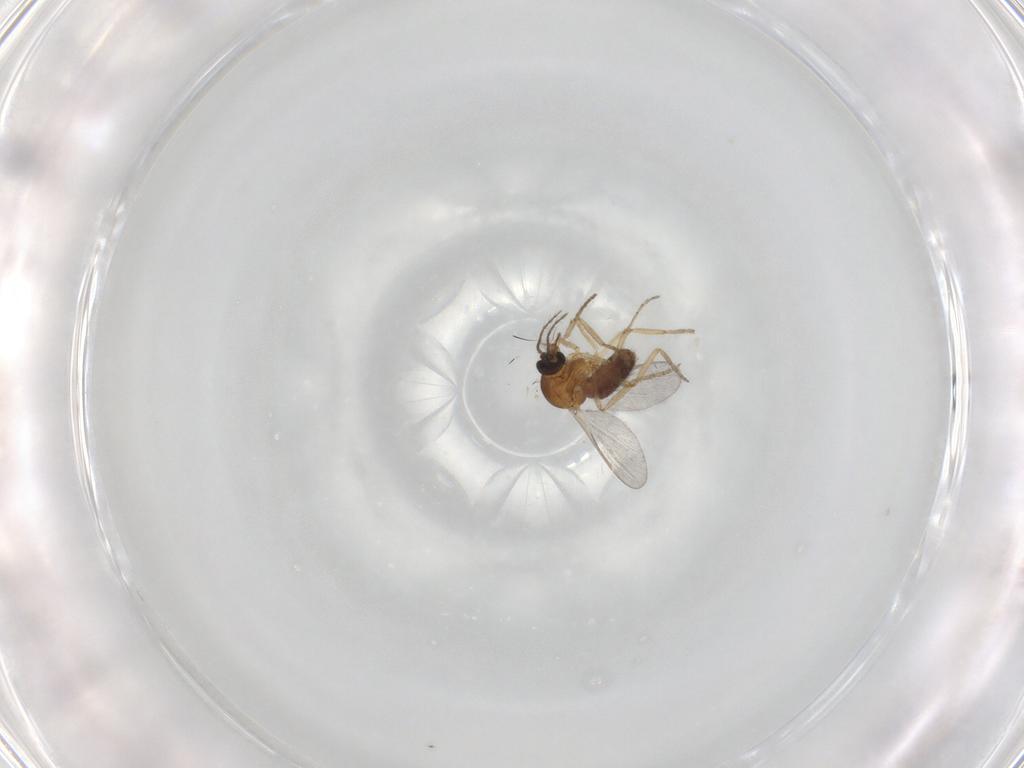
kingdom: Animalia
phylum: Arthropoda
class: Insecta
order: Diptera
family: Ceratopogonidae
